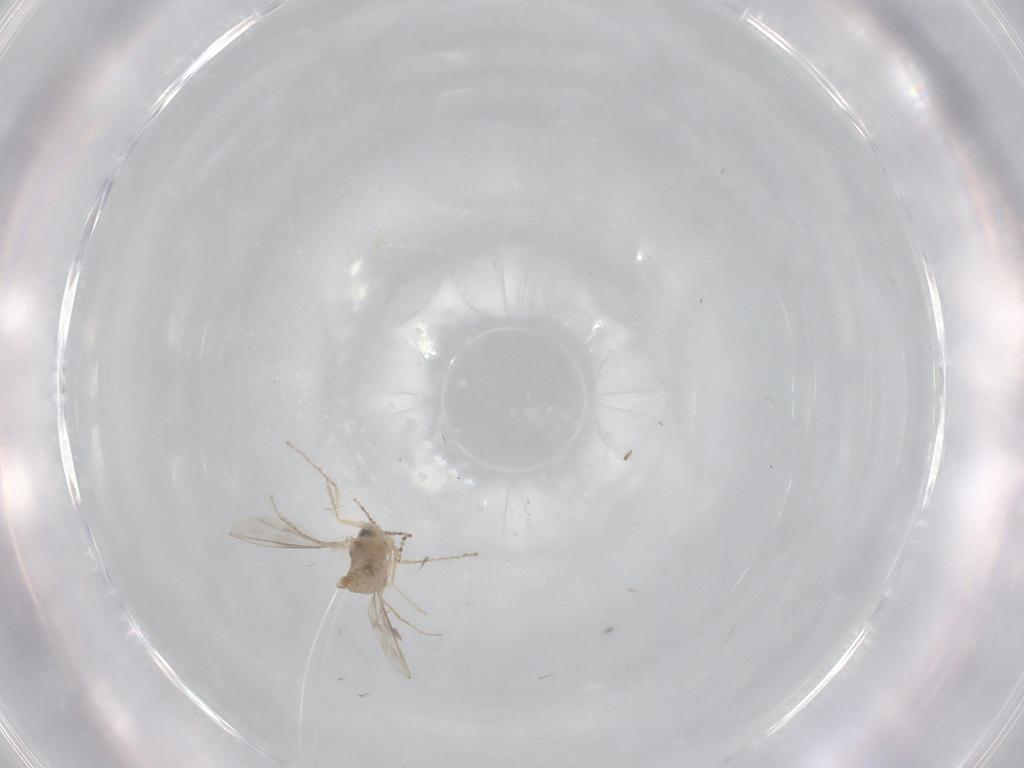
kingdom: Animalia
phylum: Arthropoda
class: Insecta
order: Diptera
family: Cecidomyiidae
